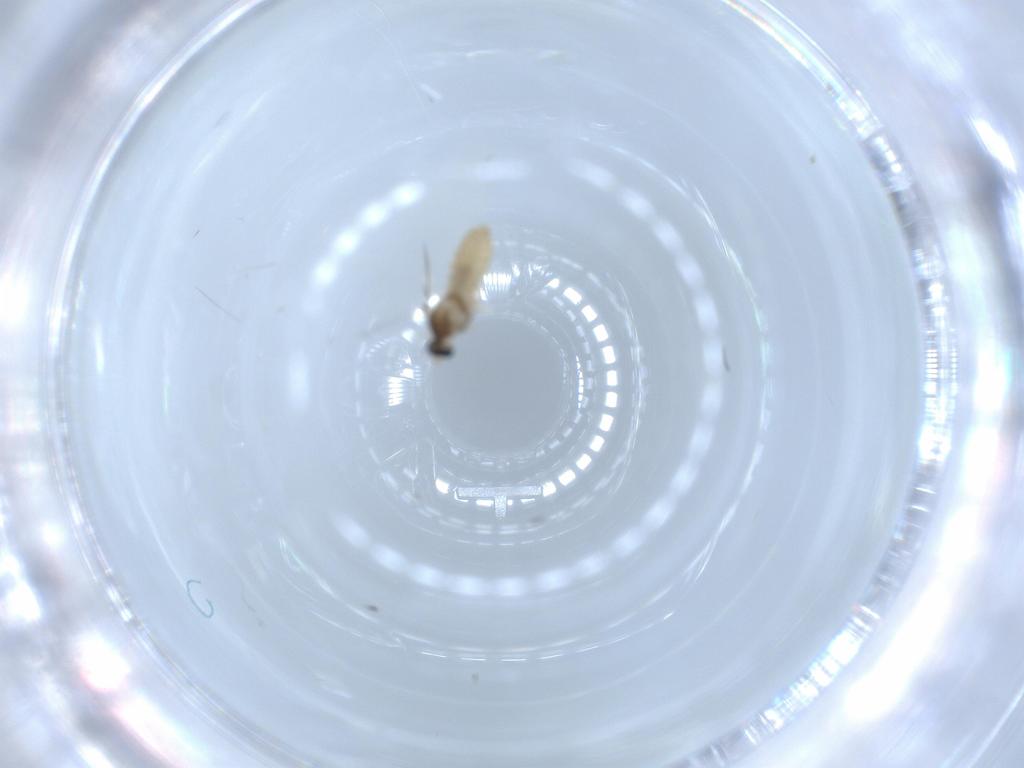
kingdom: Animalia
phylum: Arthropoda
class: Insecta
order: Diptera
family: Cecidomyiidae
